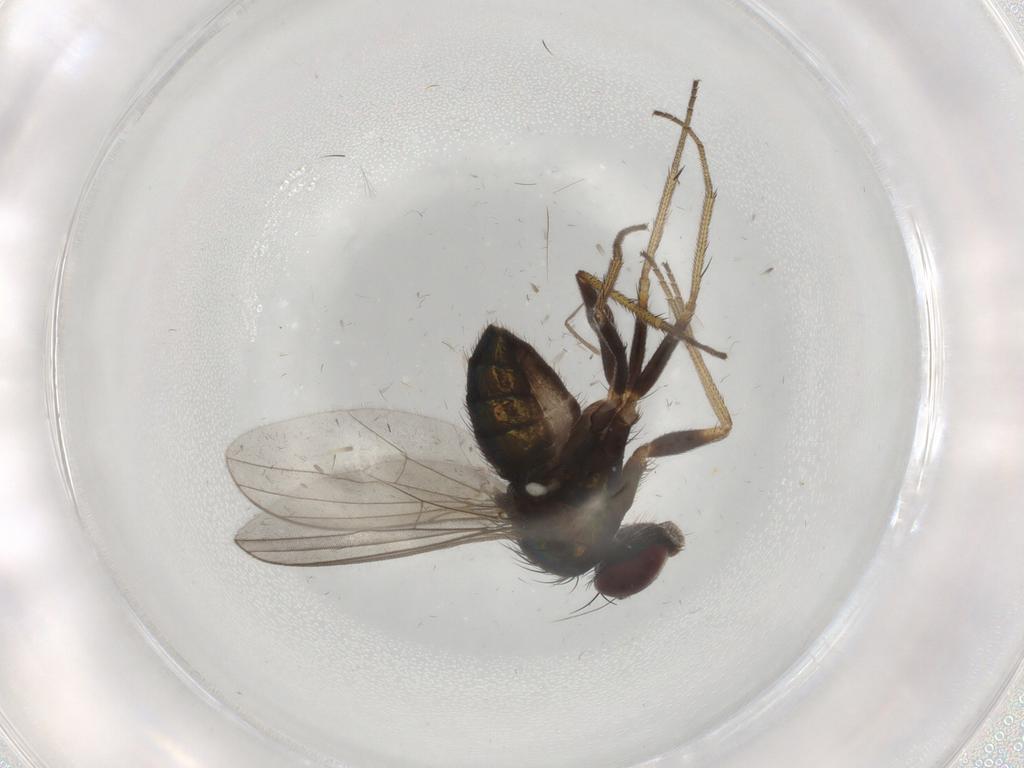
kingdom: Animalia
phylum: Arthropoda
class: Insecta
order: Diptera
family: Dolichopodidae
